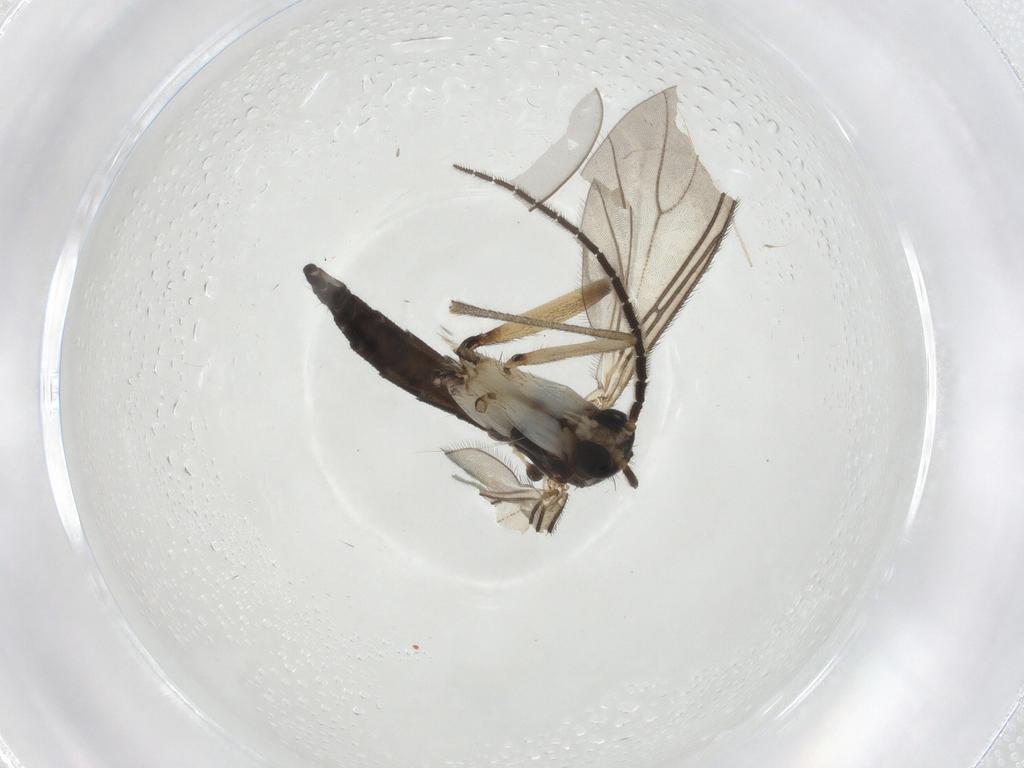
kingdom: Animalia
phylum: Arthropoda
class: Insecta
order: Diptera
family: Sciaridae
